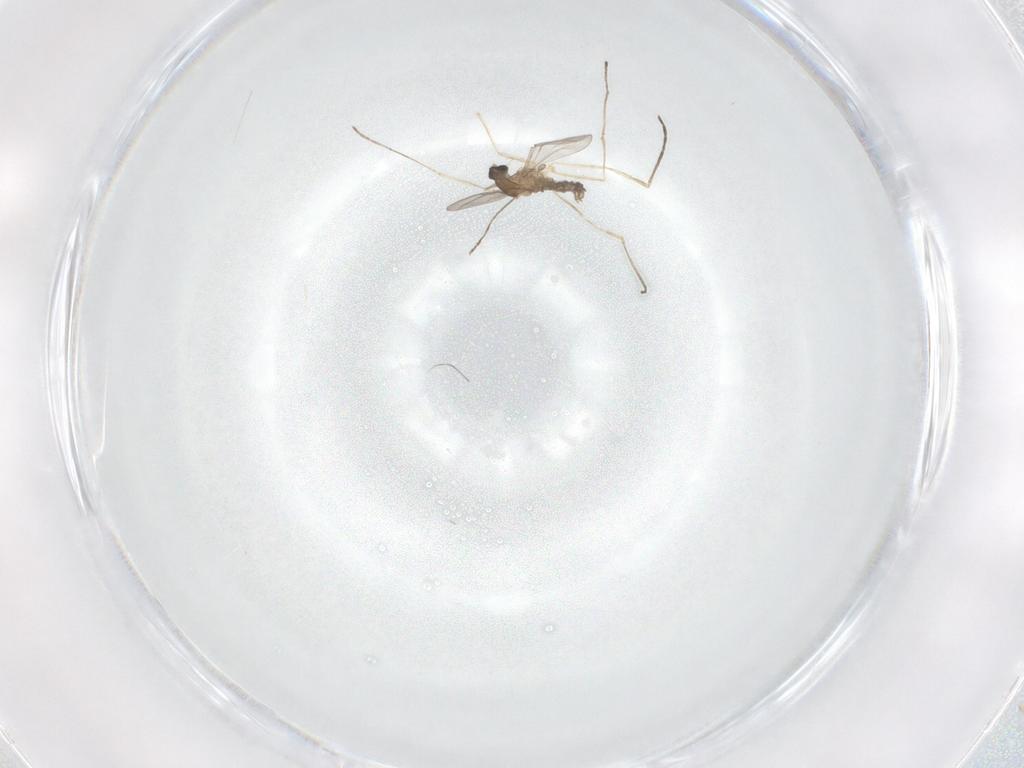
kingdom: Animalia
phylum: Arthropoda
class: Insecta
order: Diptera
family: Cecidomyiidae
